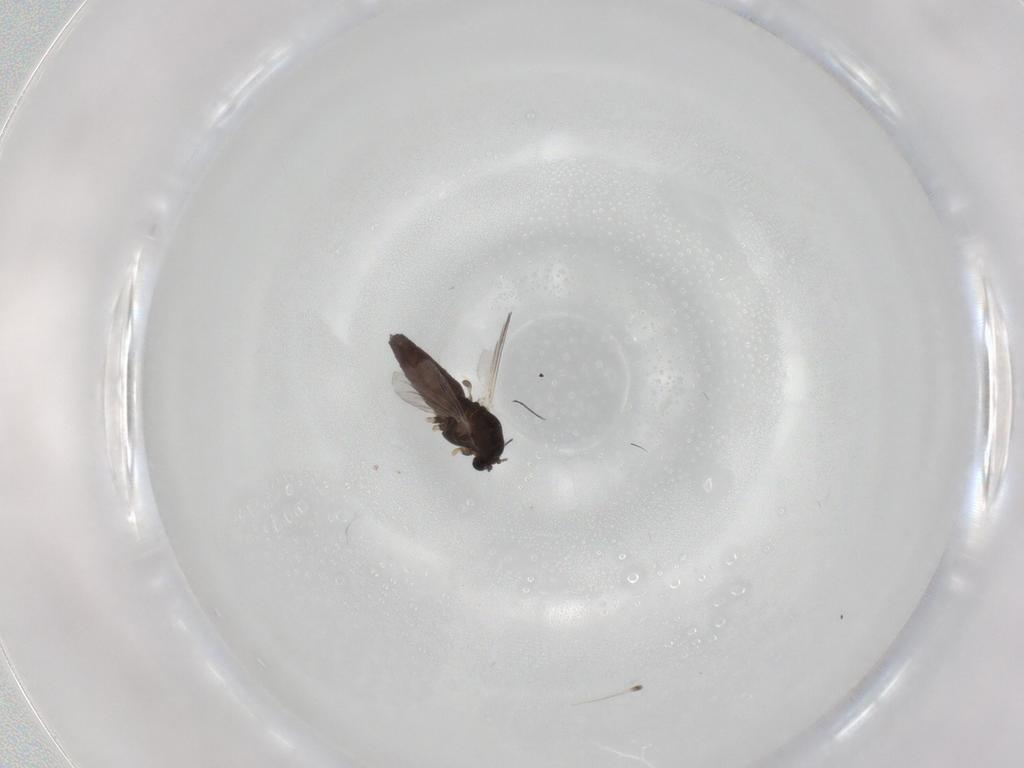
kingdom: Animalia
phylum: Arthropoda
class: Insecta
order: Diptera
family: Chironomidae
